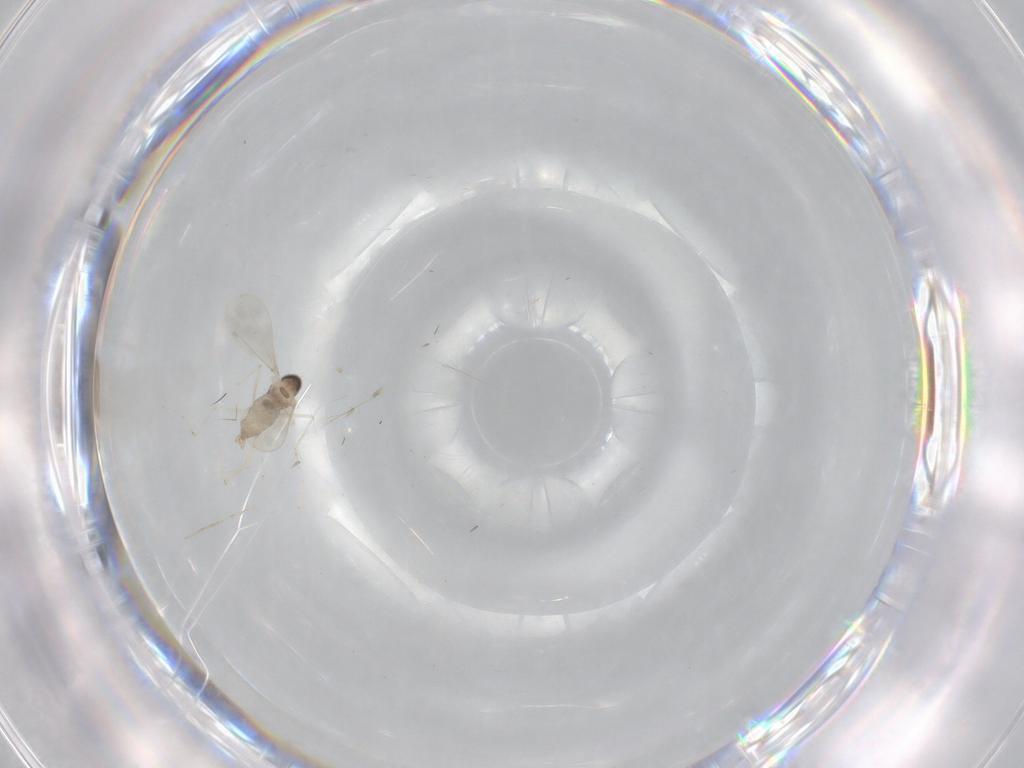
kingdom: Animalia
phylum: Arthropoda
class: Insecta
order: Diptera
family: Cecidomyiidae
